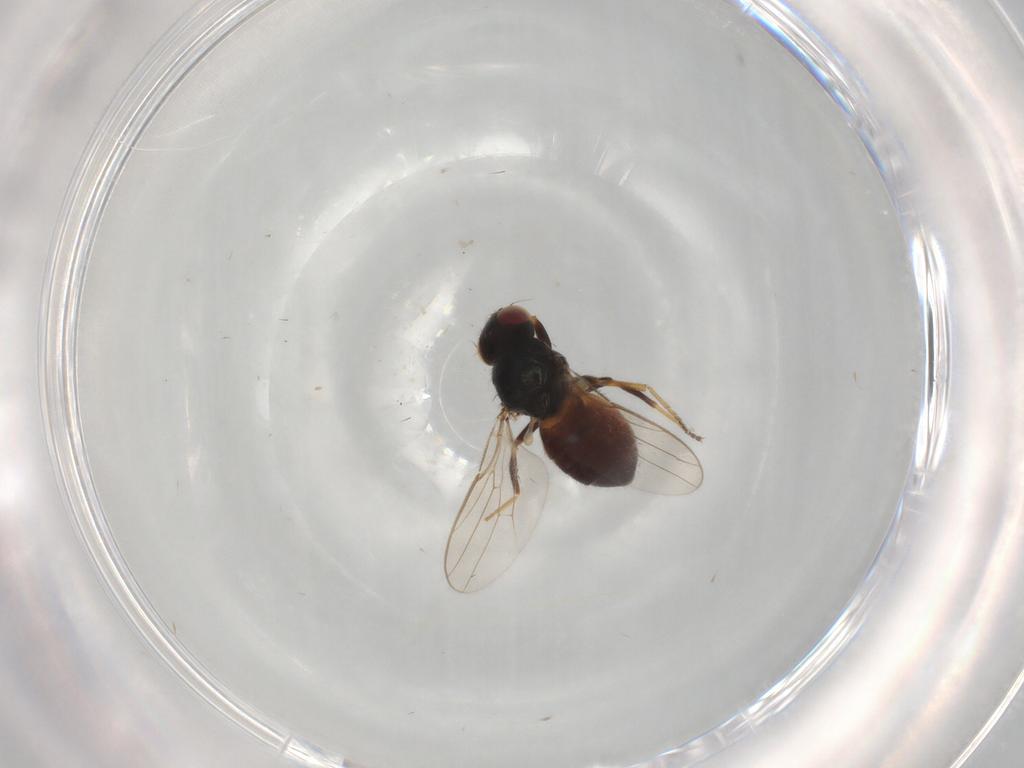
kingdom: Animalia
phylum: Arthropoda
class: Insecta
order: Diptera
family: Chloropidae
